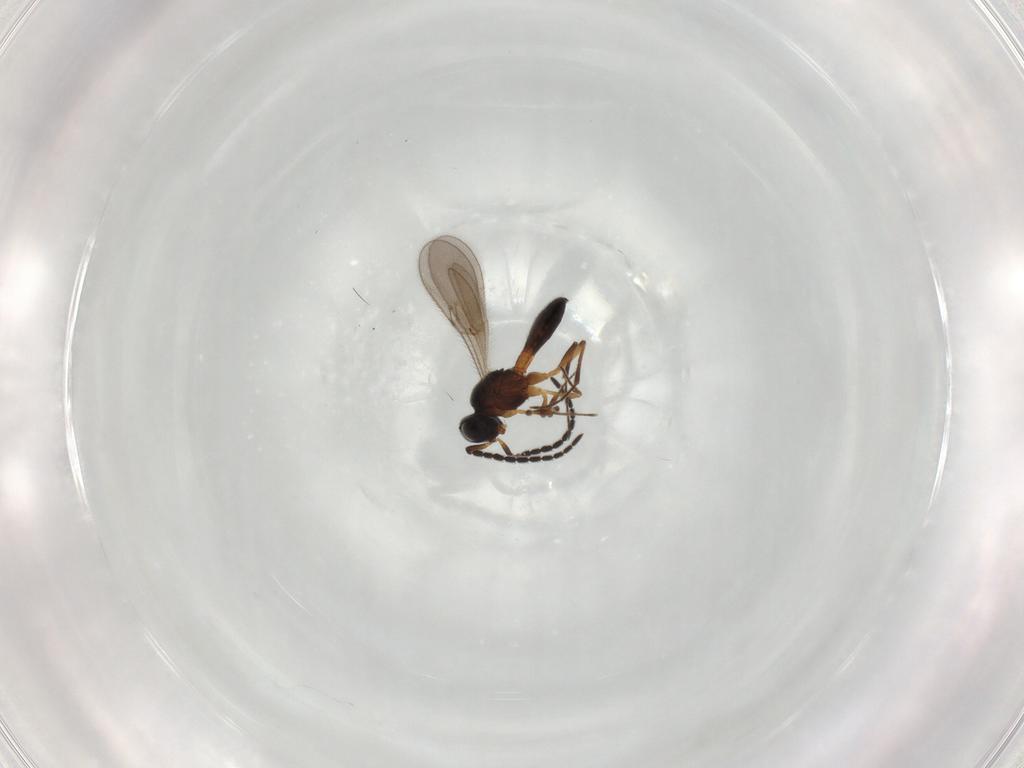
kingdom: Animalia
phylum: Arthropoda
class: Insecta
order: Hymenoptera
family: Scelionidae
